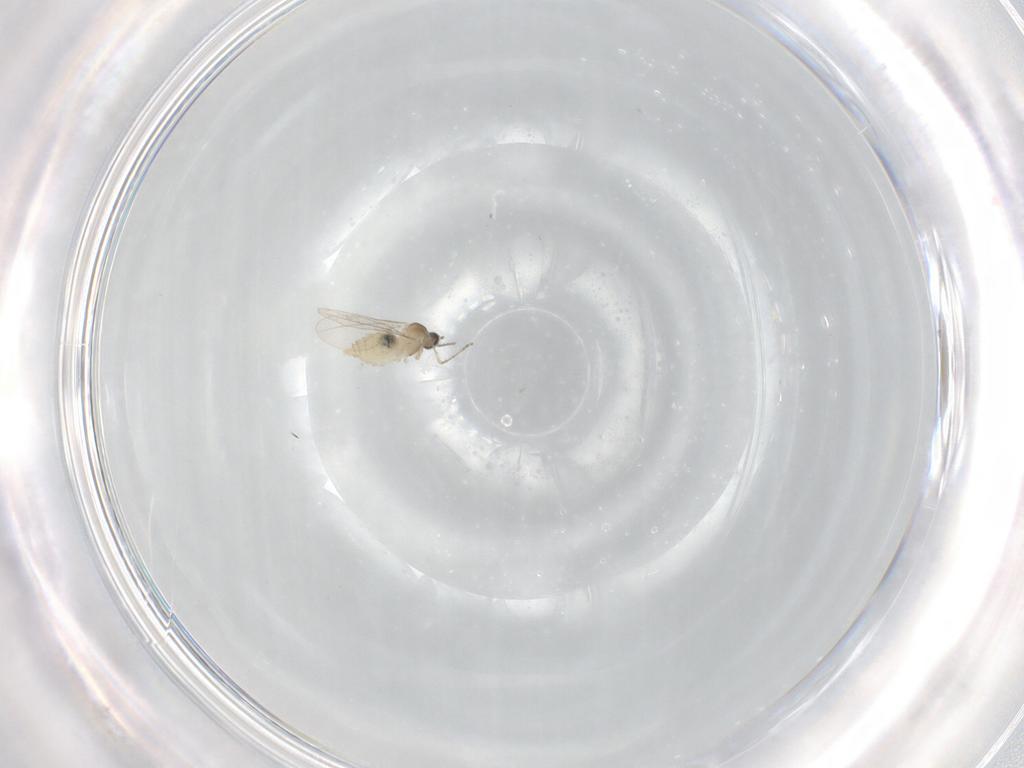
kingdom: Animalia
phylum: Arthropoda
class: Insecta
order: Diptera
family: Cecidomyiidae
